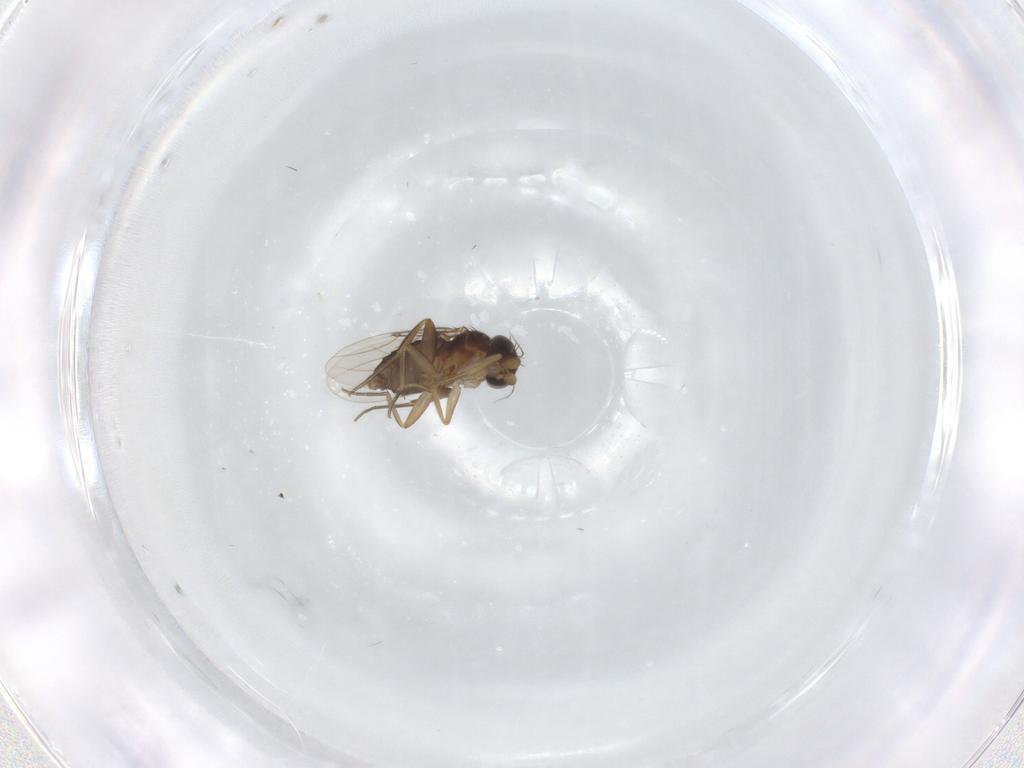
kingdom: Animalia
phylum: Arthropoda
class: Insecta
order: Diptera
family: Phoridae
